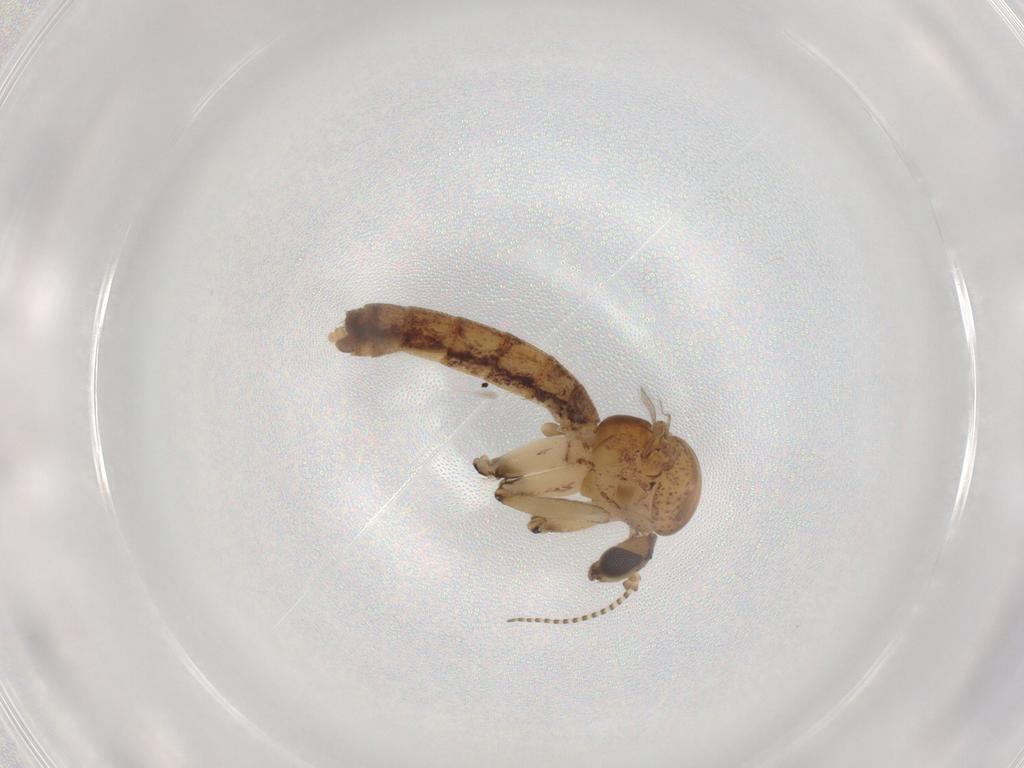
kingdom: Animalia
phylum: Arthropoda
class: Insecta
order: Diptera
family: Mycetophilidae
